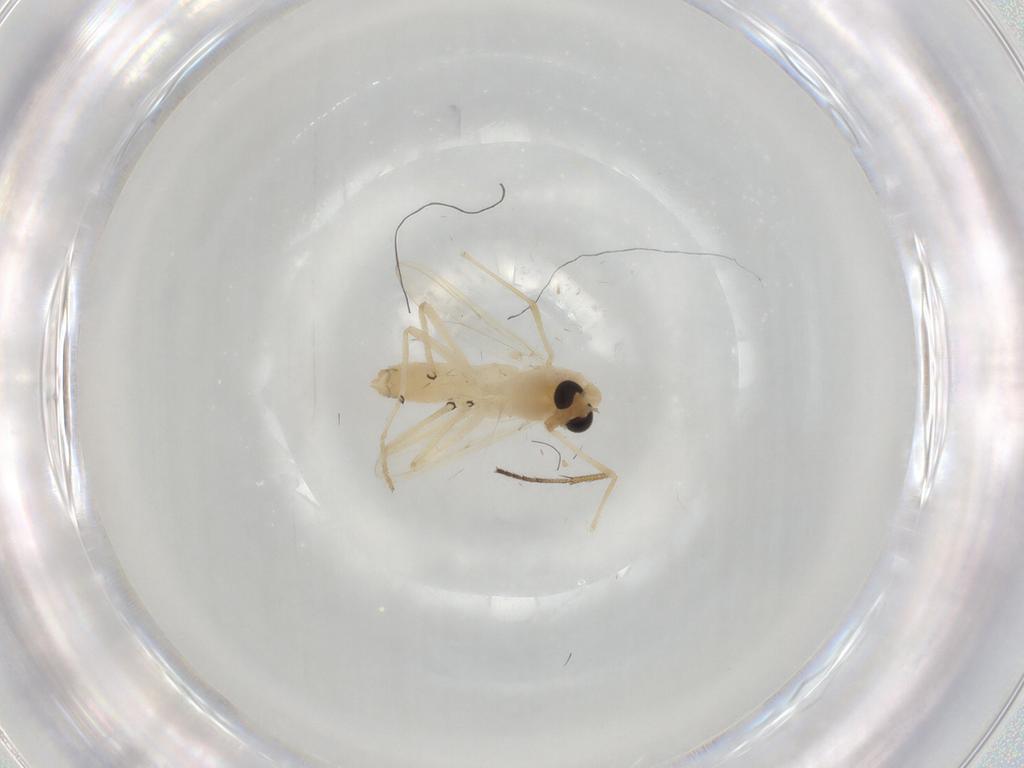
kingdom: Animalia
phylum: Arthropoda
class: Insecta
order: Diptera
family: Chironomidae
